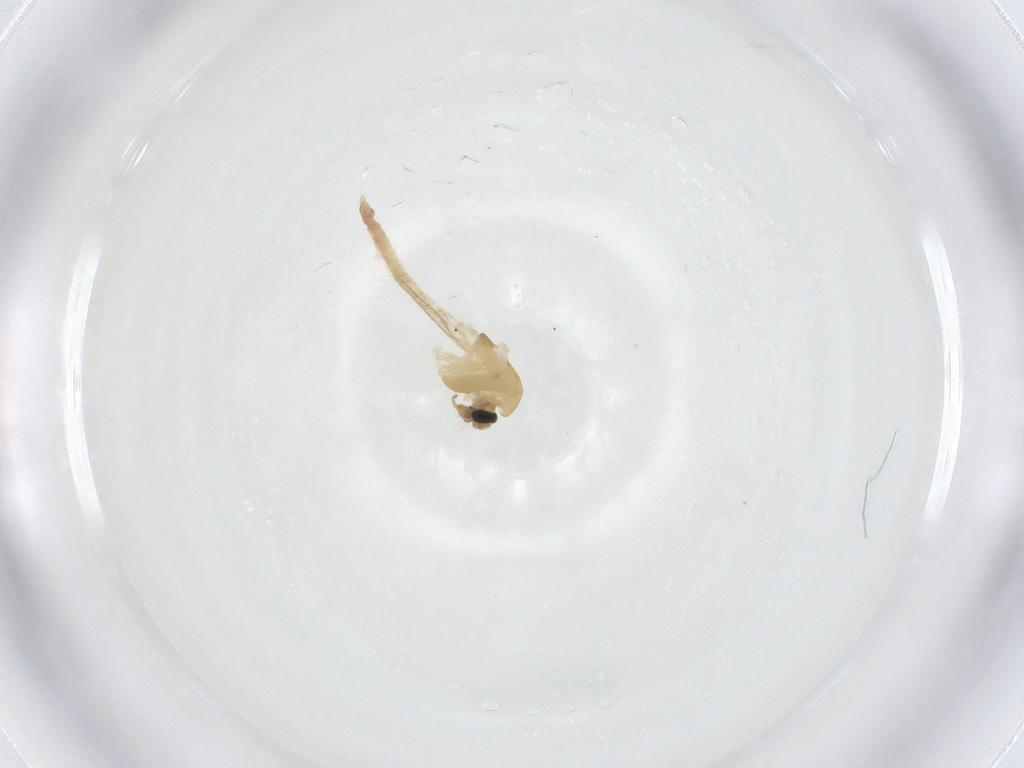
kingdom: Animalia
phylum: Arthropoda
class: Insecta
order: Diptera
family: Chironomidae
